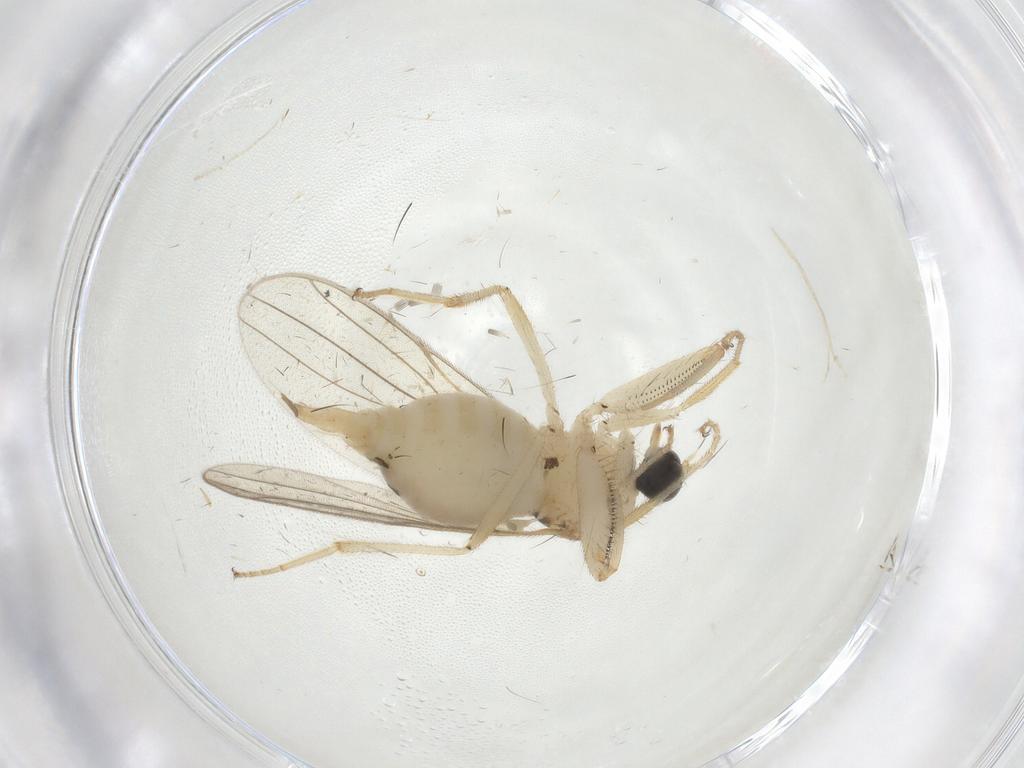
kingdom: Animalia
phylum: Arthropoda
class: Insecta
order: Diptera
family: Hybotidae
